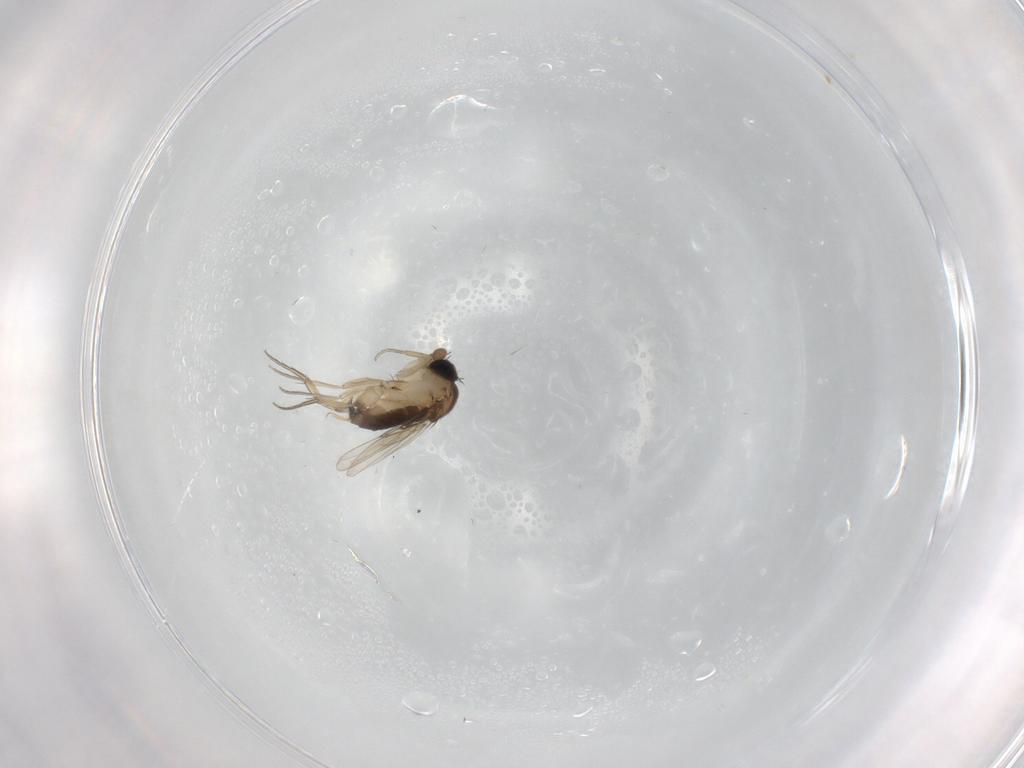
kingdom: Animalia
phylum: Arthropoda
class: Insecta
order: Diptera
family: Phoridae
